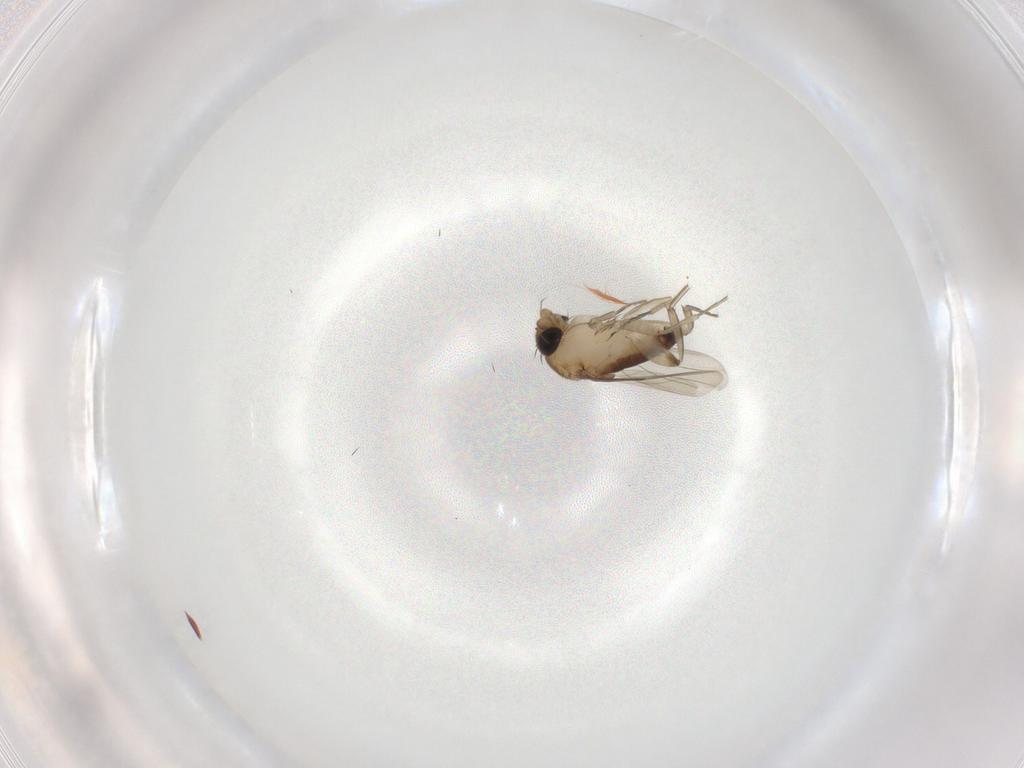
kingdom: Animalia
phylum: Arthropoda
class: Insecta
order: Diptera
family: Phoridae
